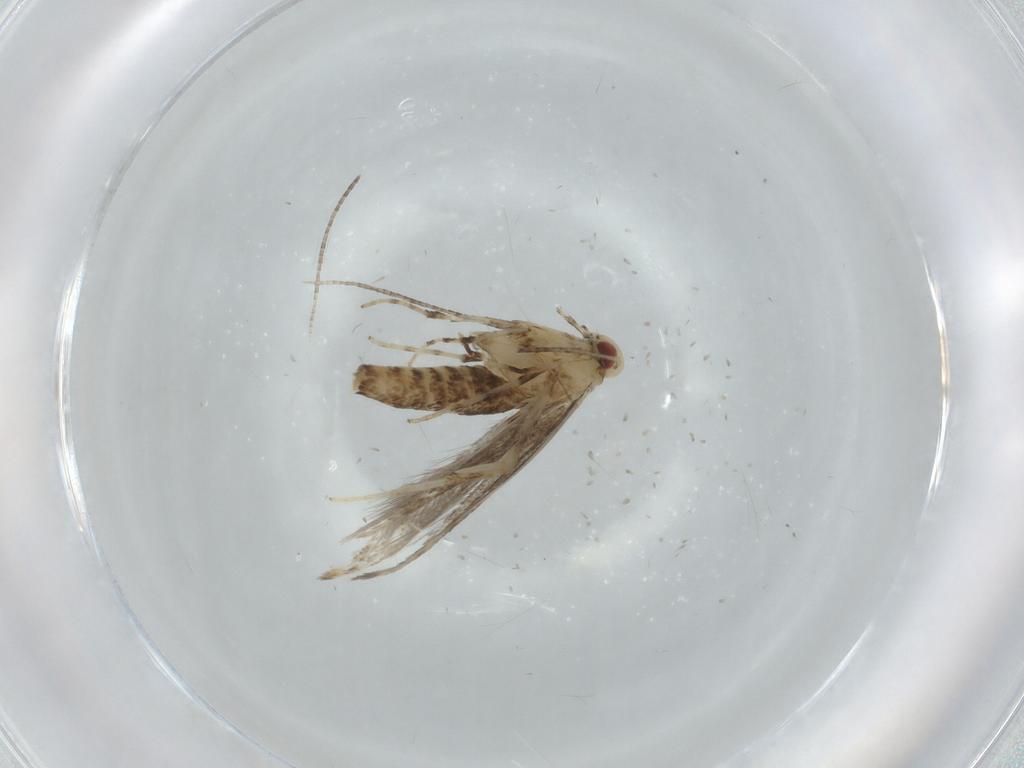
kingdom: Animalia
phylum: Arthropoda
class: Insecta
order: Lepidoptera
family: Gracillariidae
